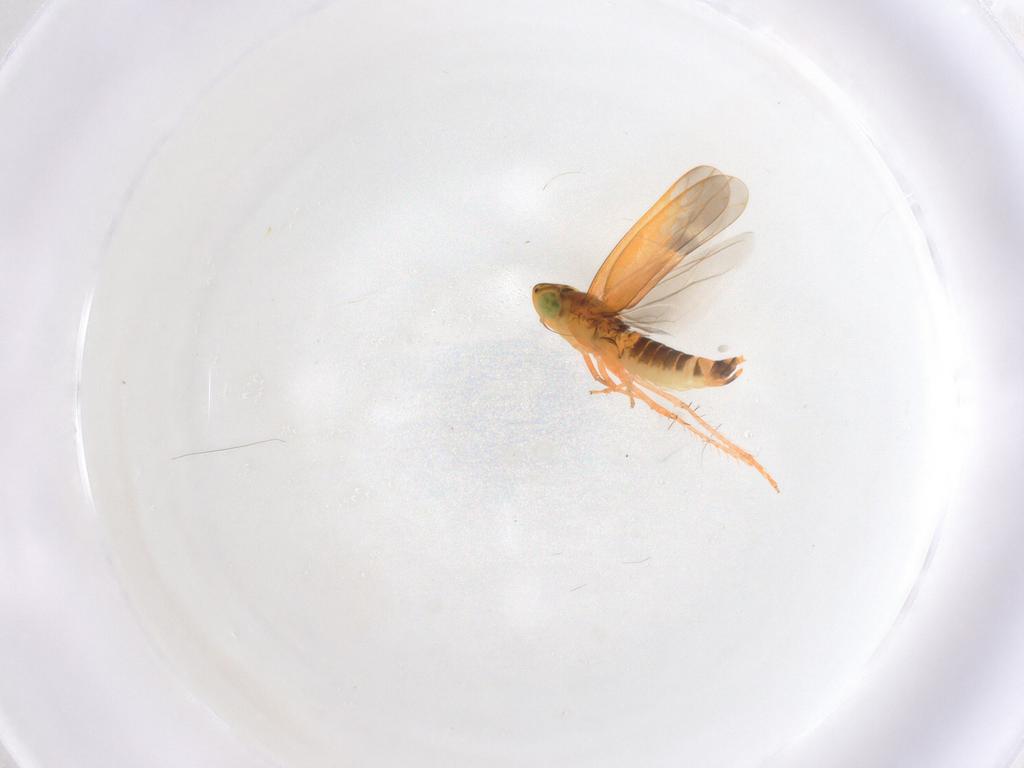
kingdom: Animalia
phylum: Arthropoda
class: Insecta
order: Hemiptera
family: Cicadellidae
